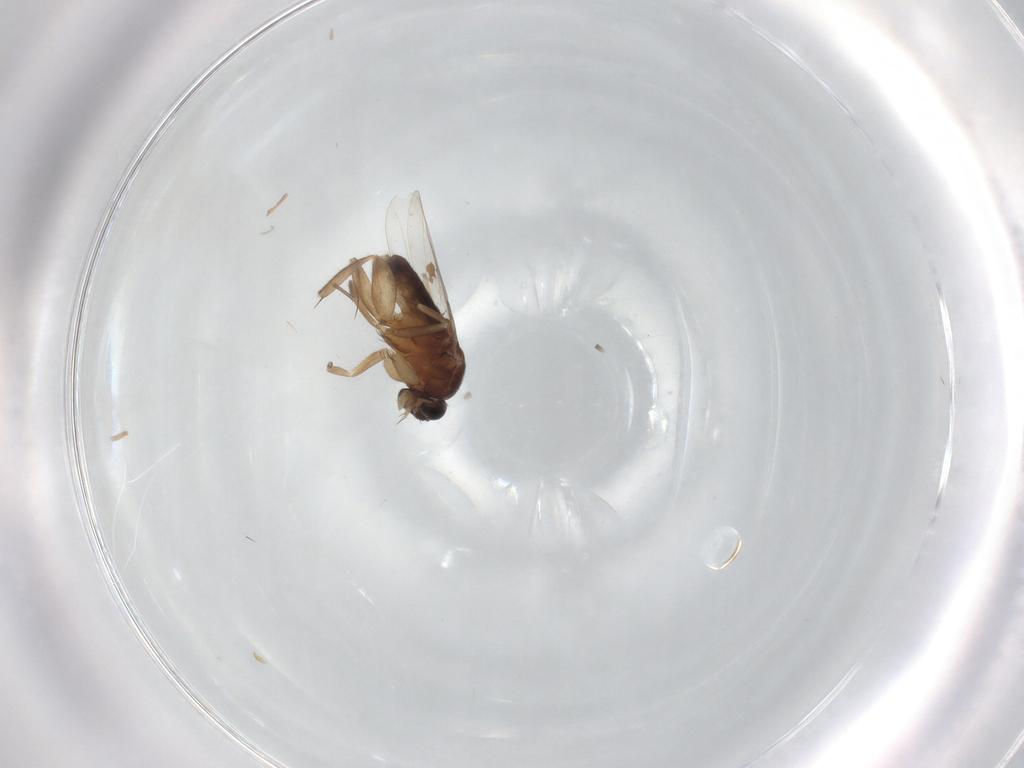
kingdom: Animalia
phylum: Arthropoda
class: Insecta
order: Diptera
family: Phoridae
